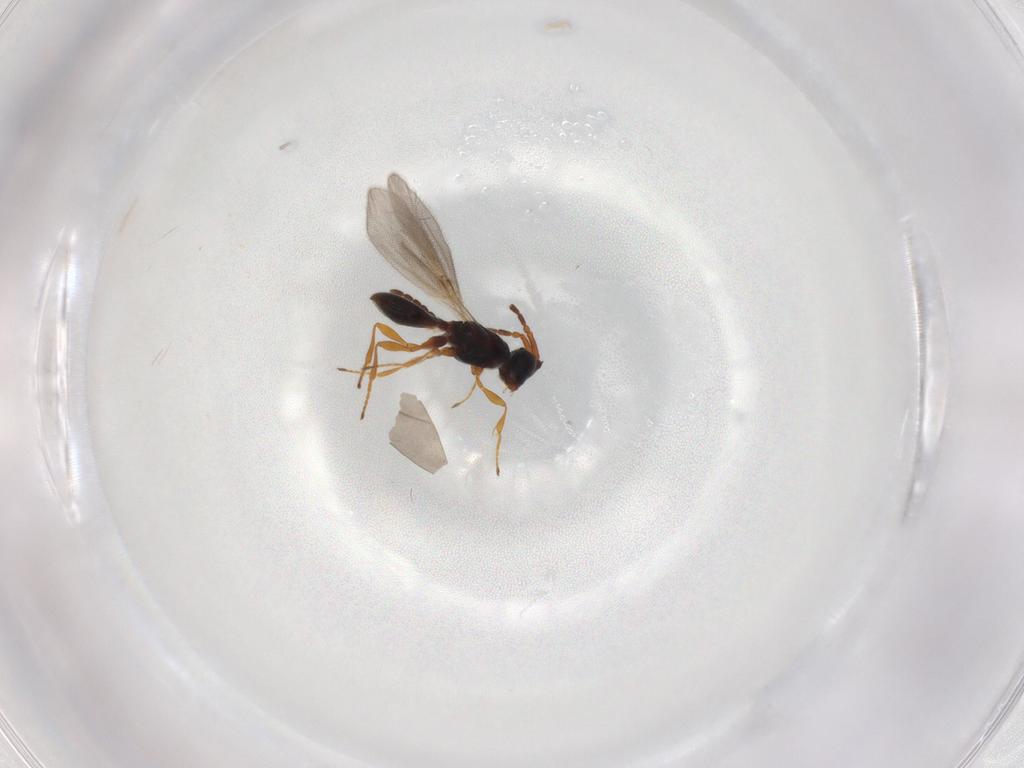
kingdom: Animalia
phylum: Arthropoda
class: Insecta
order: Hymenoptera
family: Diapriidae
